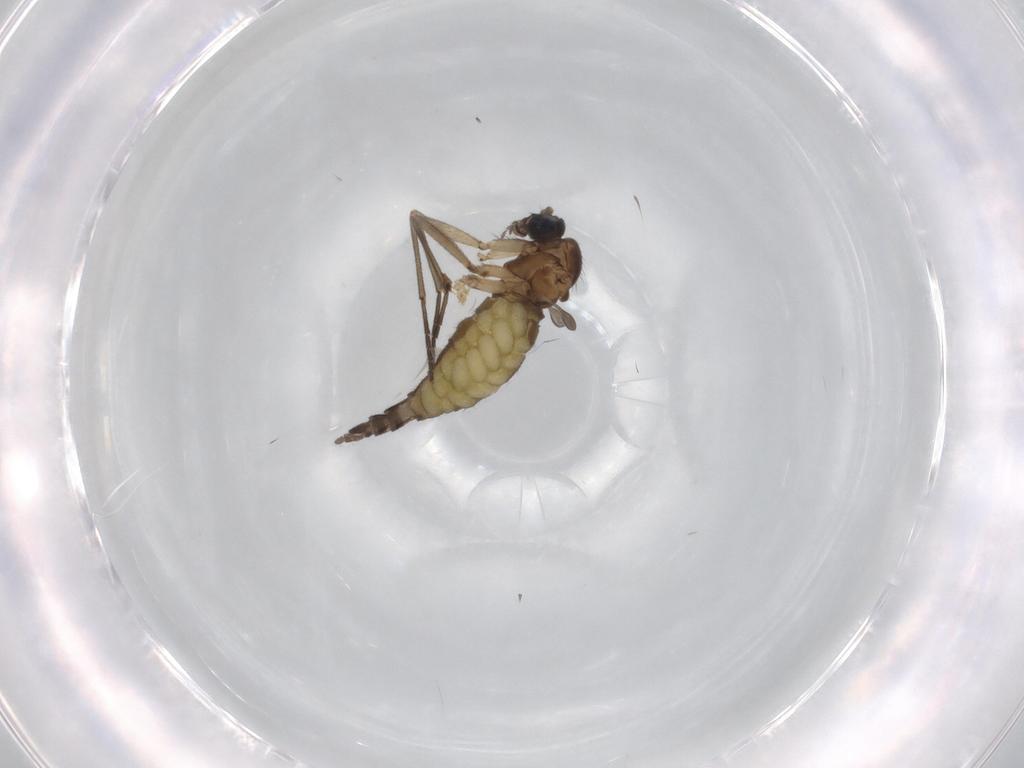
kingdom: Animalia
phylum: Arthropoda
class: Insecta
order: Diptera
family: Sciaridae
